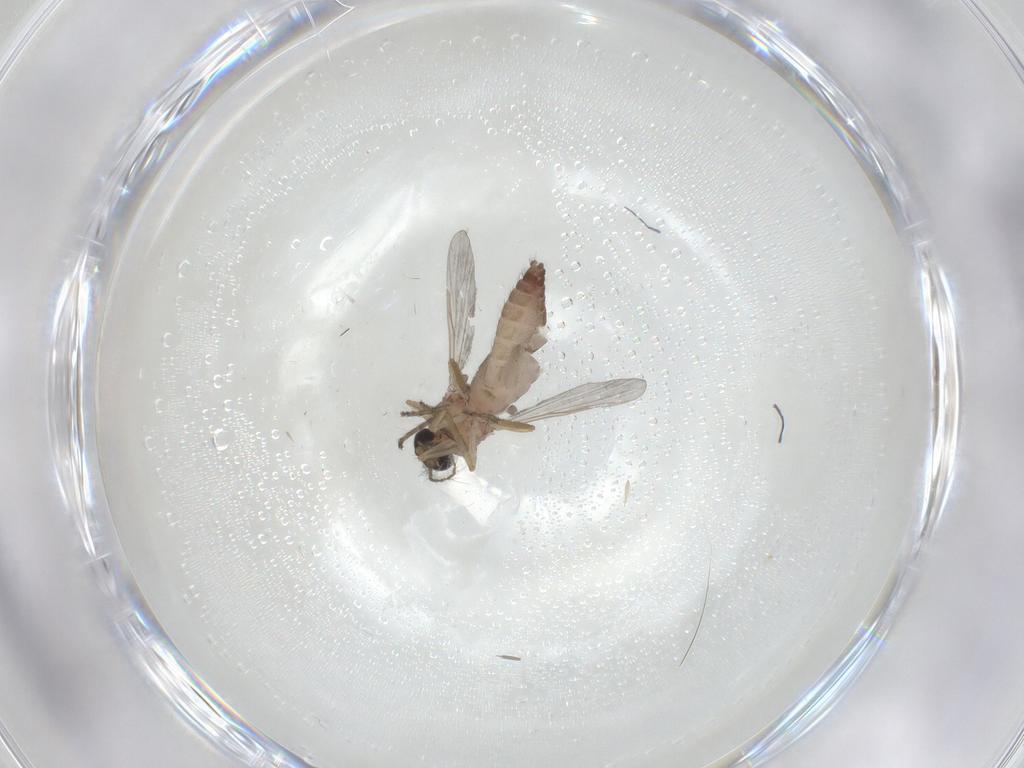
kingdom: Animalia
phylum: Arthropoda
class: Insecta
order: Diptera
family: Ceratopogonidae
